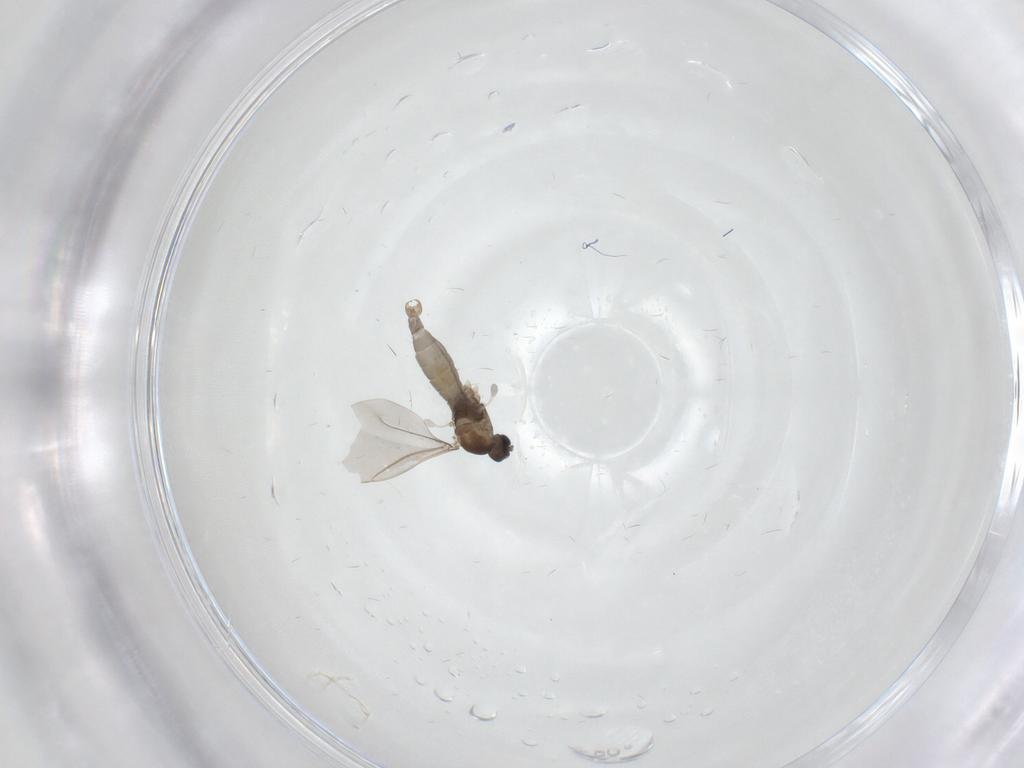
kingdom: Animalia
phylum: Arthropoda
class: Insecta
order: Diptera
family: Cecidomyiidae
